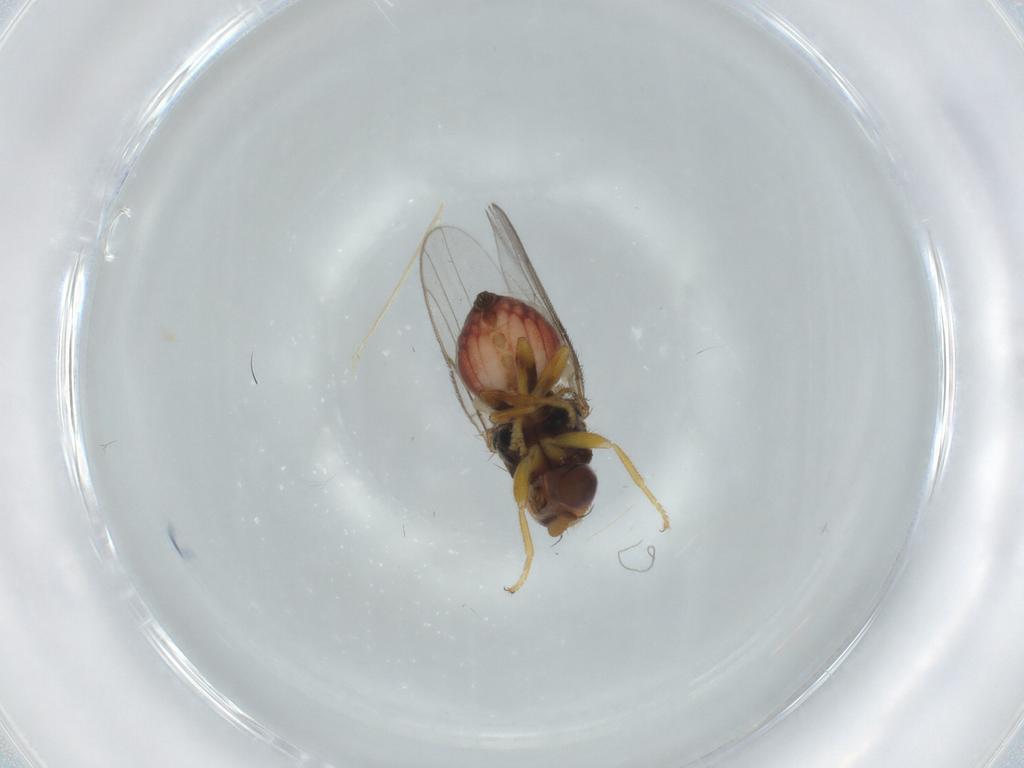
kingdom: Animalia
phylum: Arthropoda
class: Insecta
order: Diptera
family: Chloropidae
